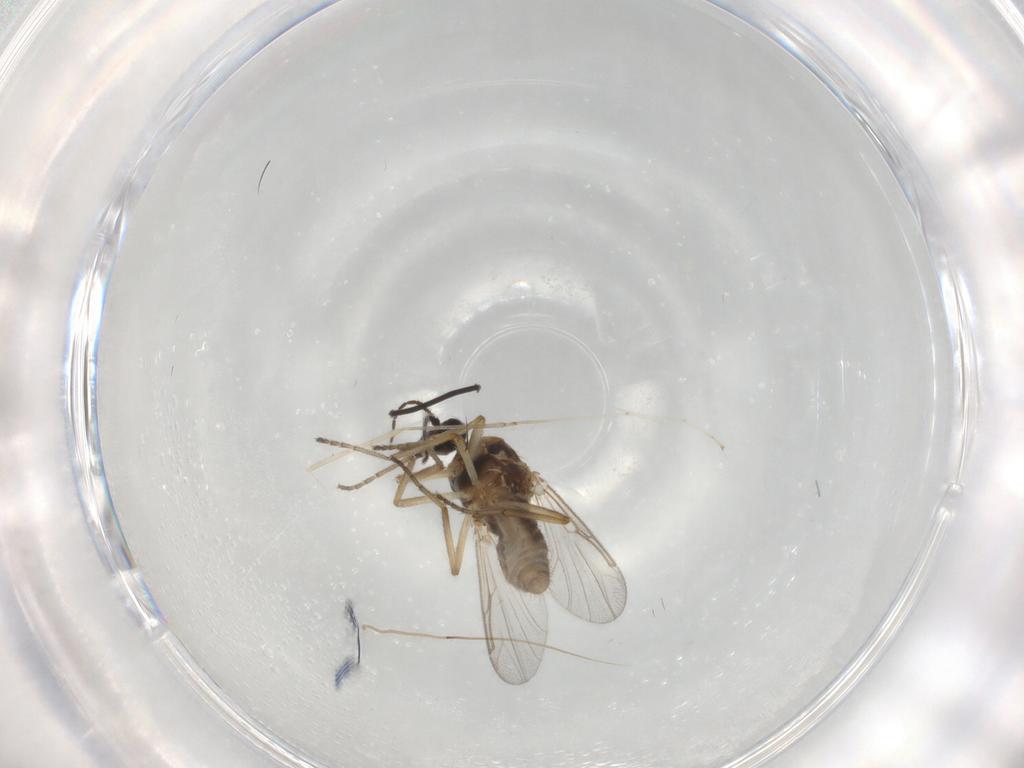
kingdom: Animalia
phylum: Arthropoda
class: Insecta
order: Diptera
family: Ceratopogonidae
